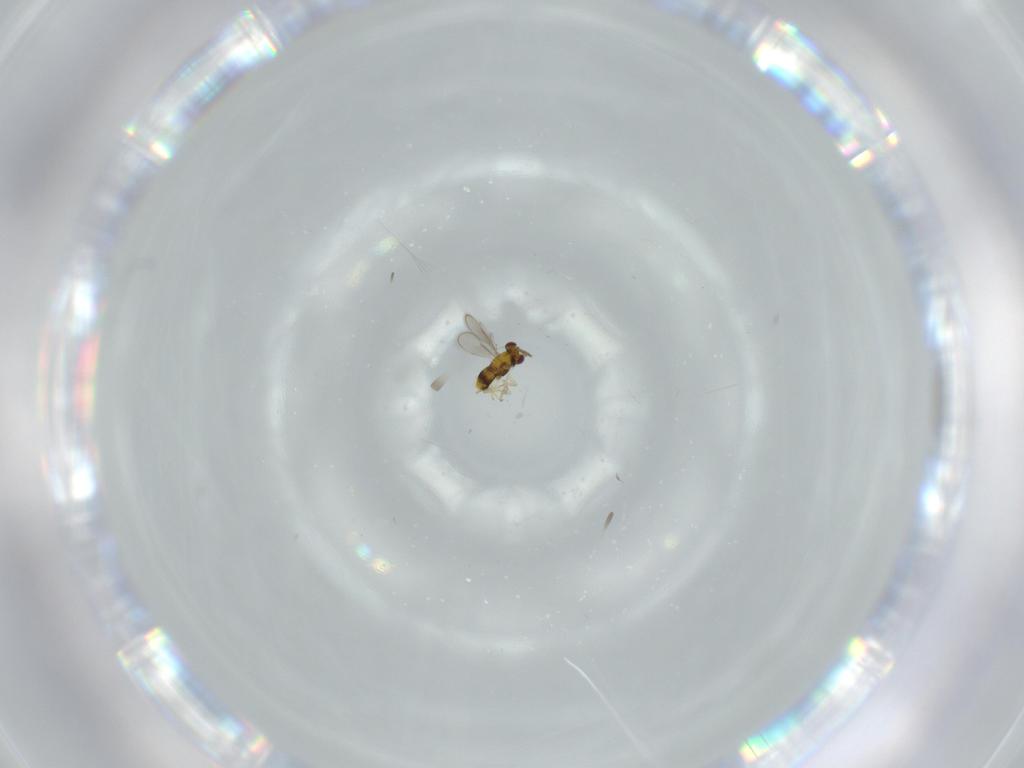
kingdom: Animalia
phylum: Arthropoda
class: Insecta
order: Hymenoptera
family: Aphelinidae
